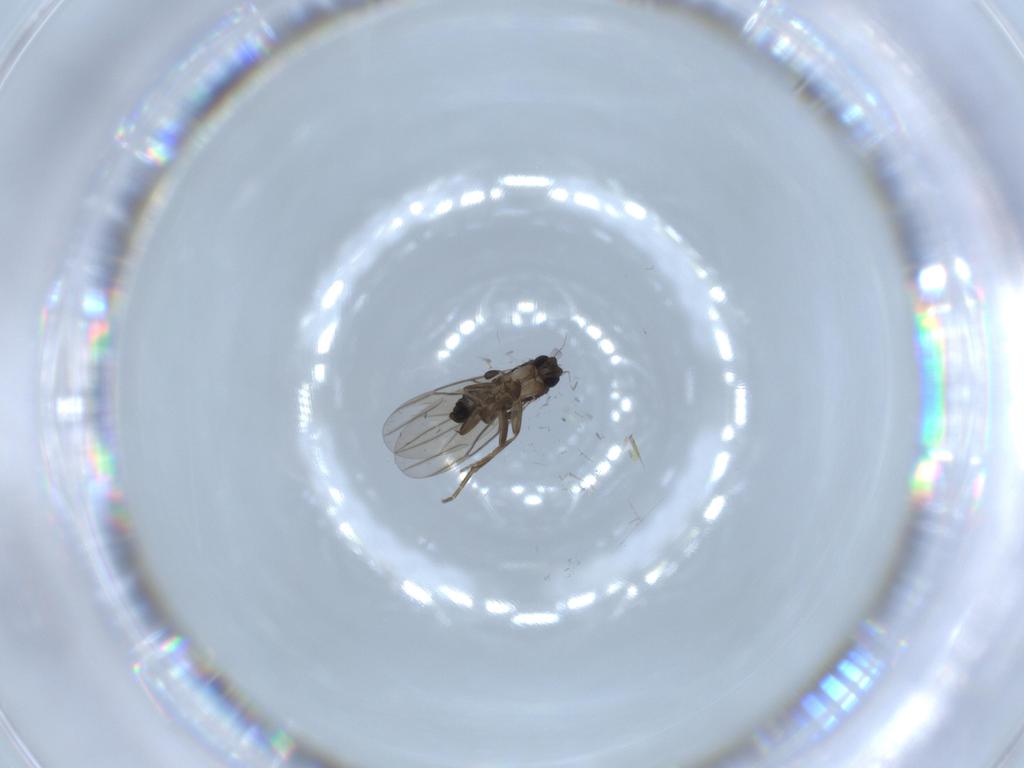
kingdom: Animalia
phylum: Arthropoda
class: Insecta
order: Diptera
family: Phoridae
